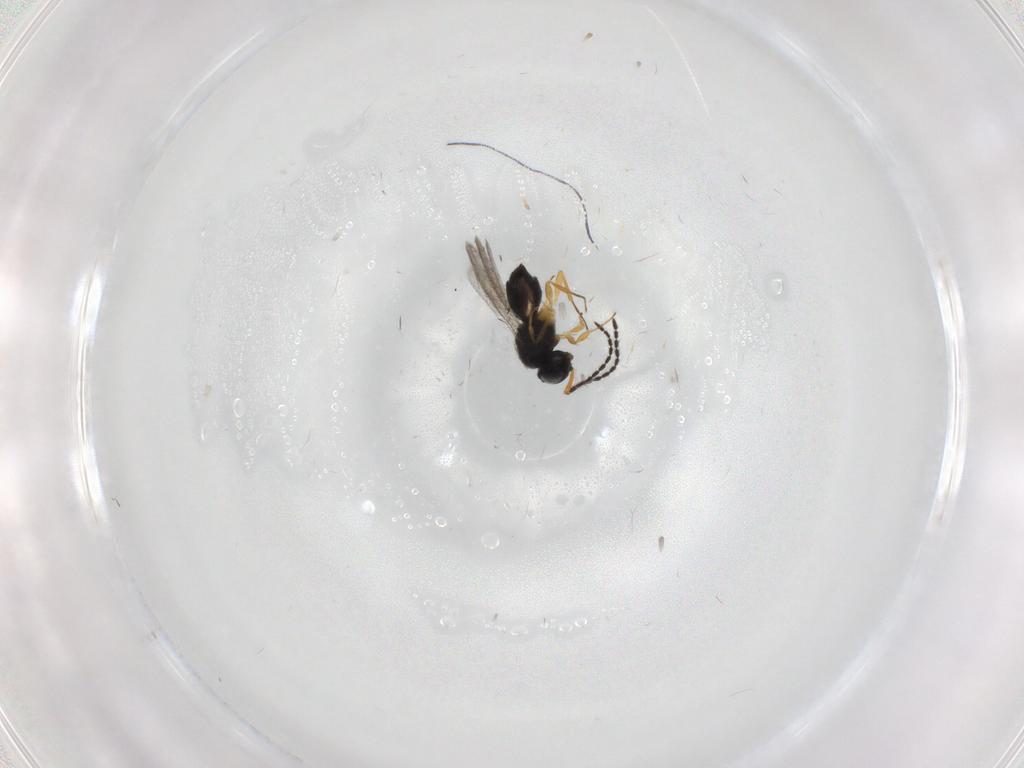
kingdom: Animalia
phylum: Arthropoda
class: Insecta
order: Hymenoptera
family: Scelionidae
